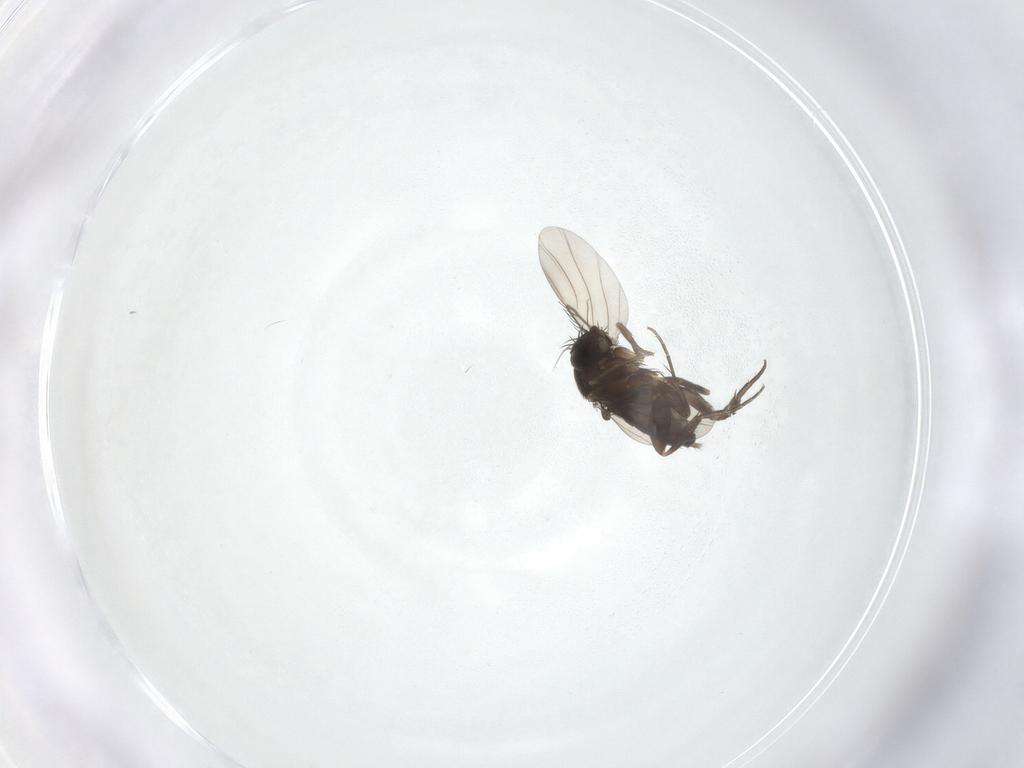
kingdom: Animalia
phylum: Arthropoda
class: Insecta
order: Diptera
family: Phoridae
